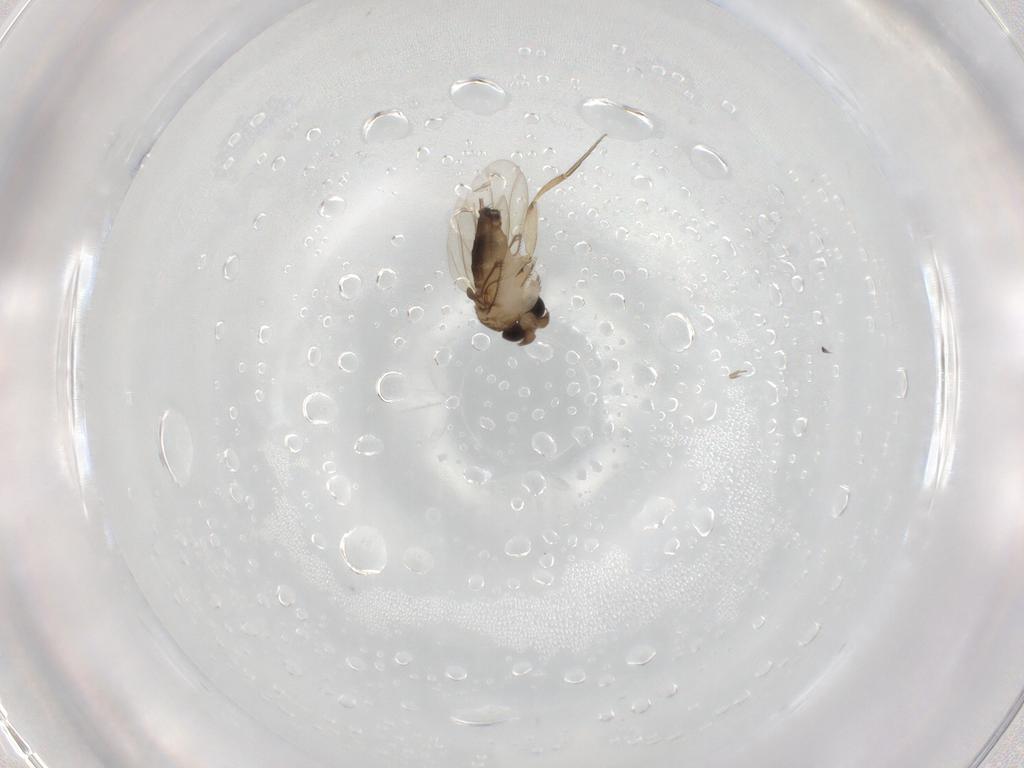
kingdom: Animalia
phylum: Arthropoda
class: Insecta
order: Diptera
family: Phoridae
